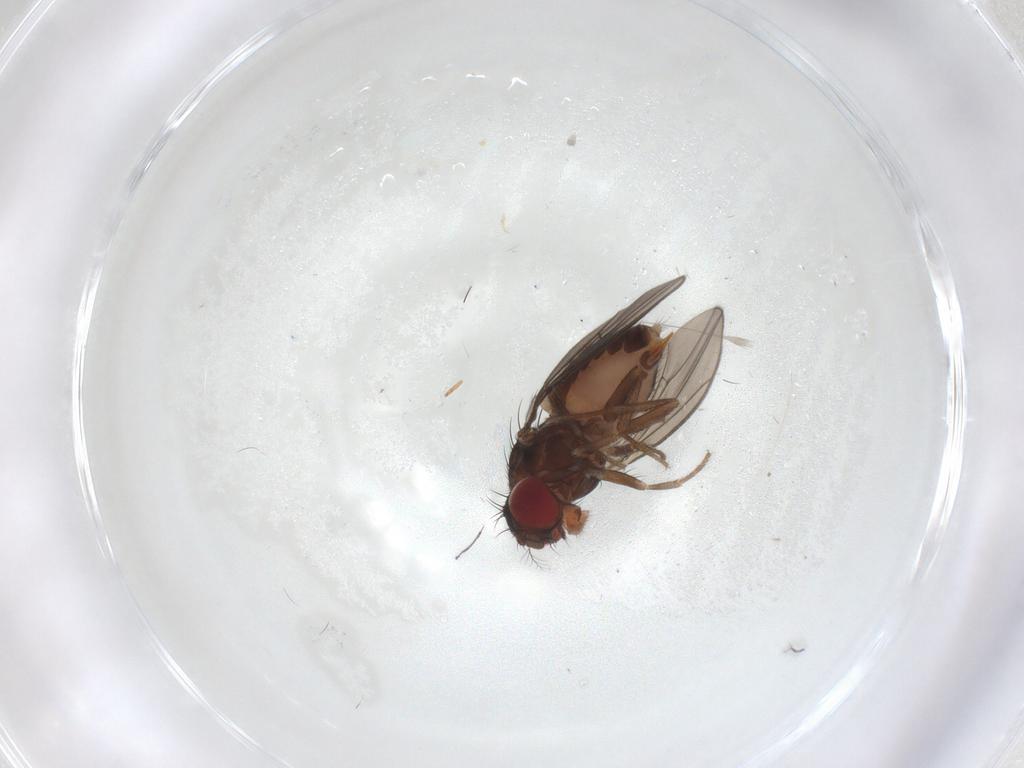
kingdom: Animalia
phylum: Arthropoda
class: Insecta
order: Diptera
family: Drosophilidae
